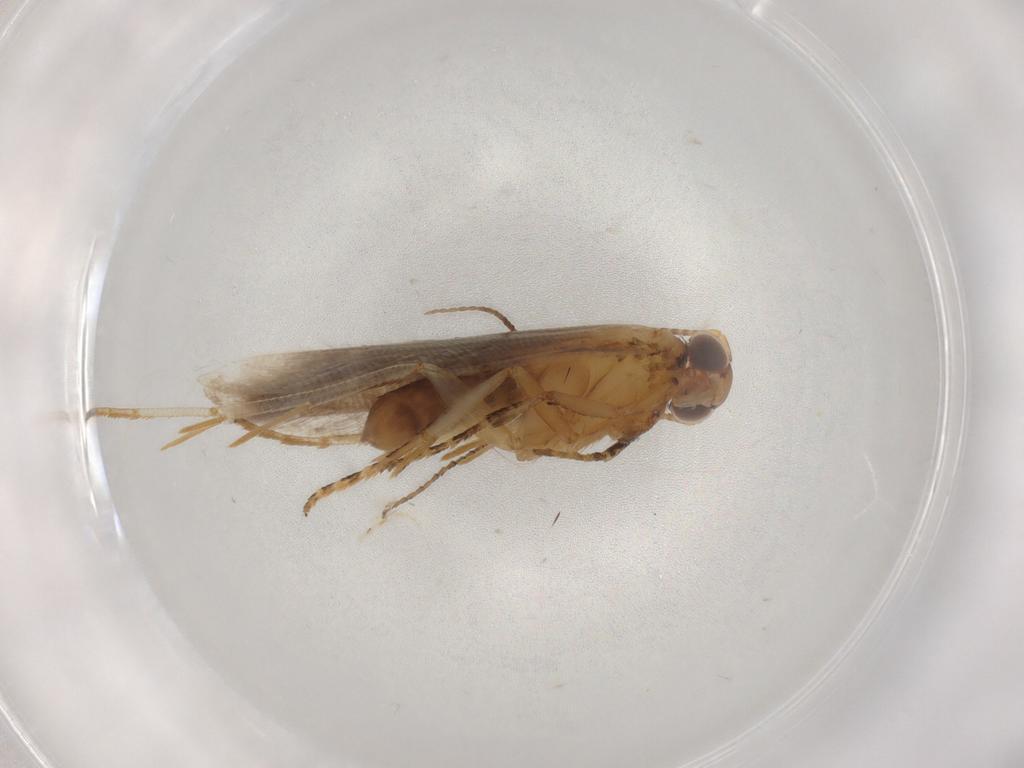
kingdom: Animalia
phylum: Arthropoda
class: Insecta
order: Lepidoptera
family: Gelechiidae
